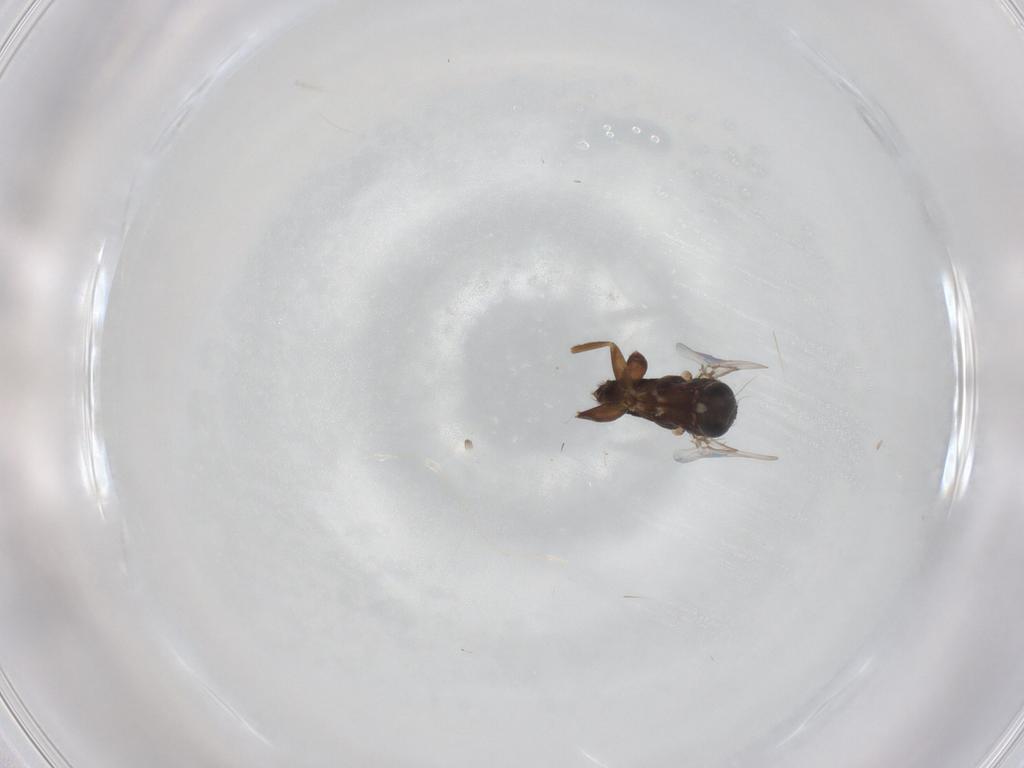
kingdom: Animalia
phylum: Arthropoda
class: Insecta
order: Diptera
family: Phoridae
